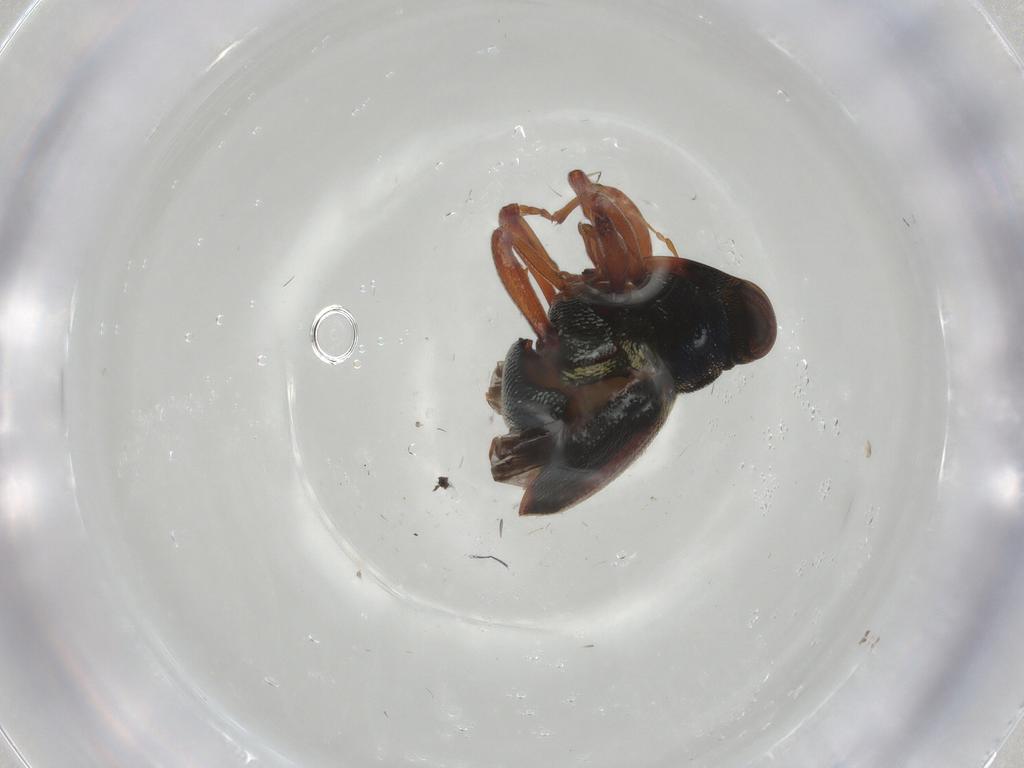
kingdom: Animalia
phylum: Arthropoda
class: Insecta
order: Coleoptera
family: Curculionidae
